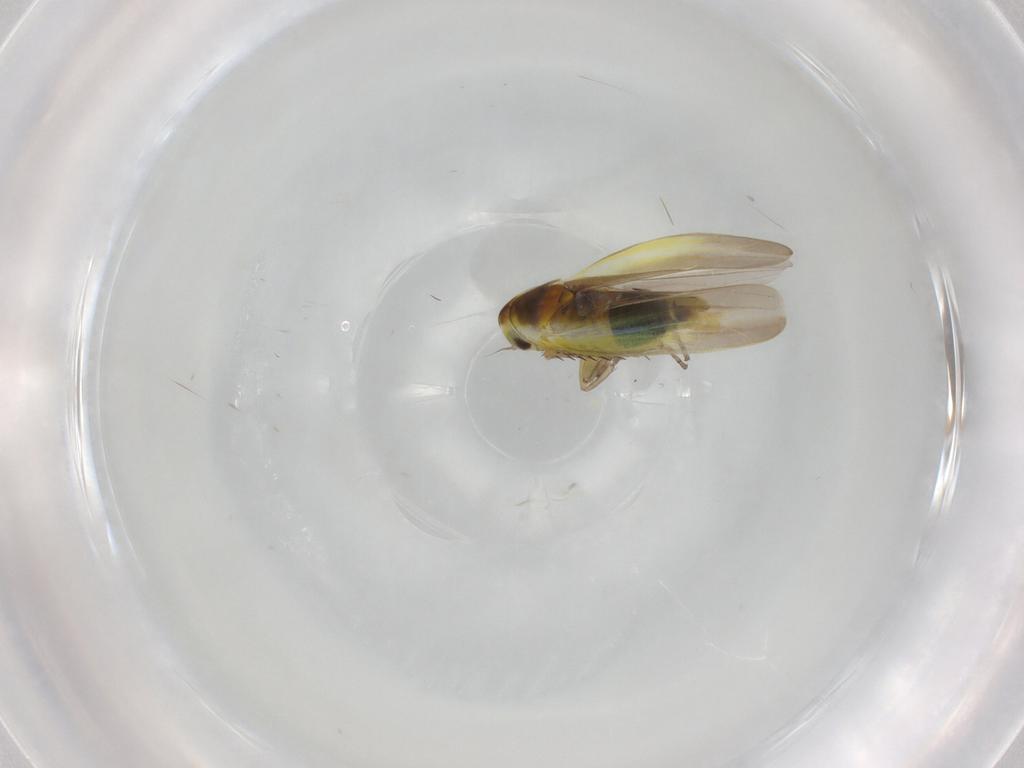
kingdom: Animalia
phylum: Arthropoda
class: Insecta
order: Hemiptera
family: Cicadellidae
